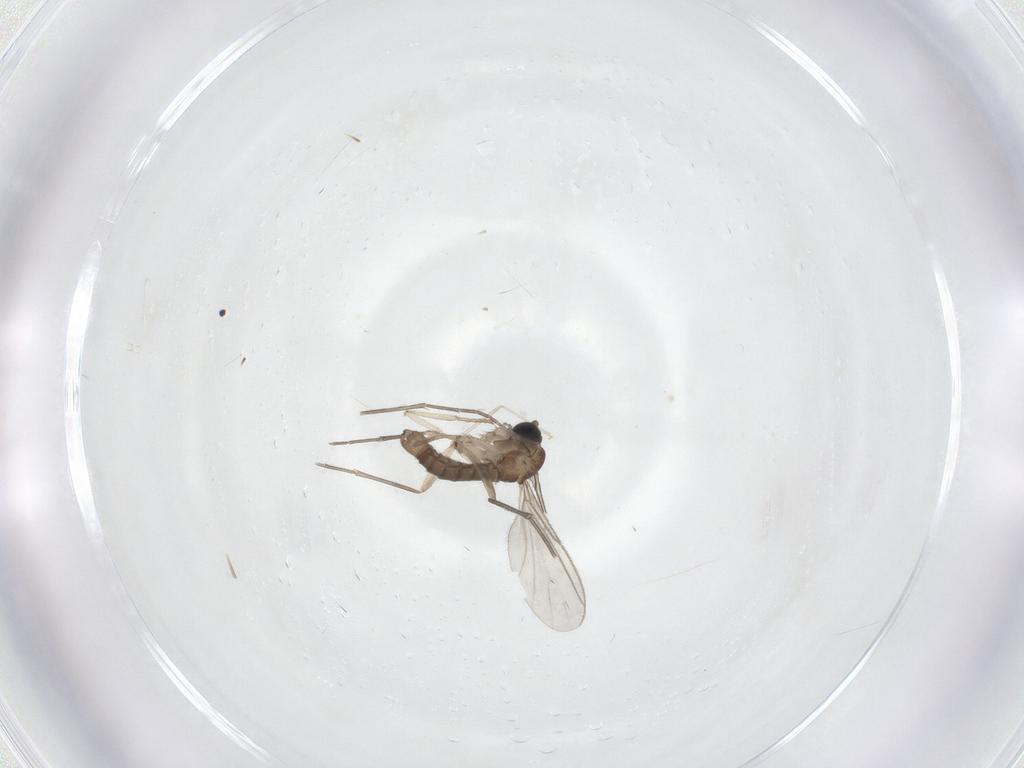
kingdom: Animalia
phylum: Arthropoda
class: Insecta
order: Diptera
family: Psychodidae
